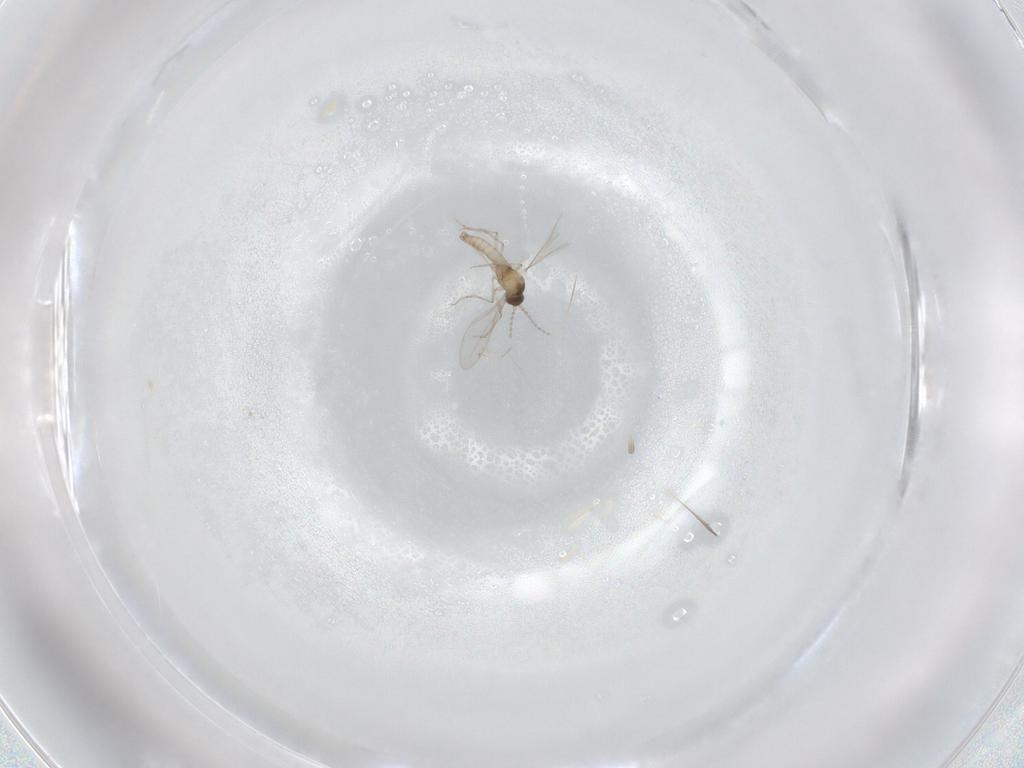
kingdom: Animalia
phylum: Arthropoda
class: Insecta
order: Diptera
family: Cecidomyiidae
